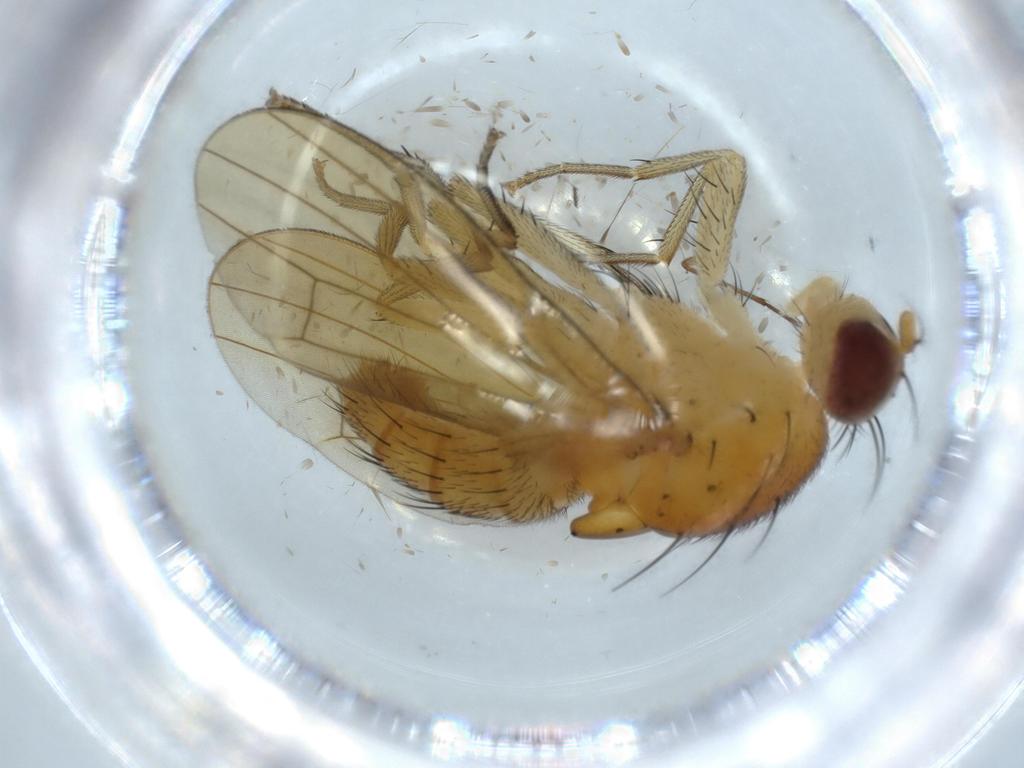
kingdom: Animalia
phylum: Arthropoda
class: Insecta
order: Diptera
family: Lauxaniidae
